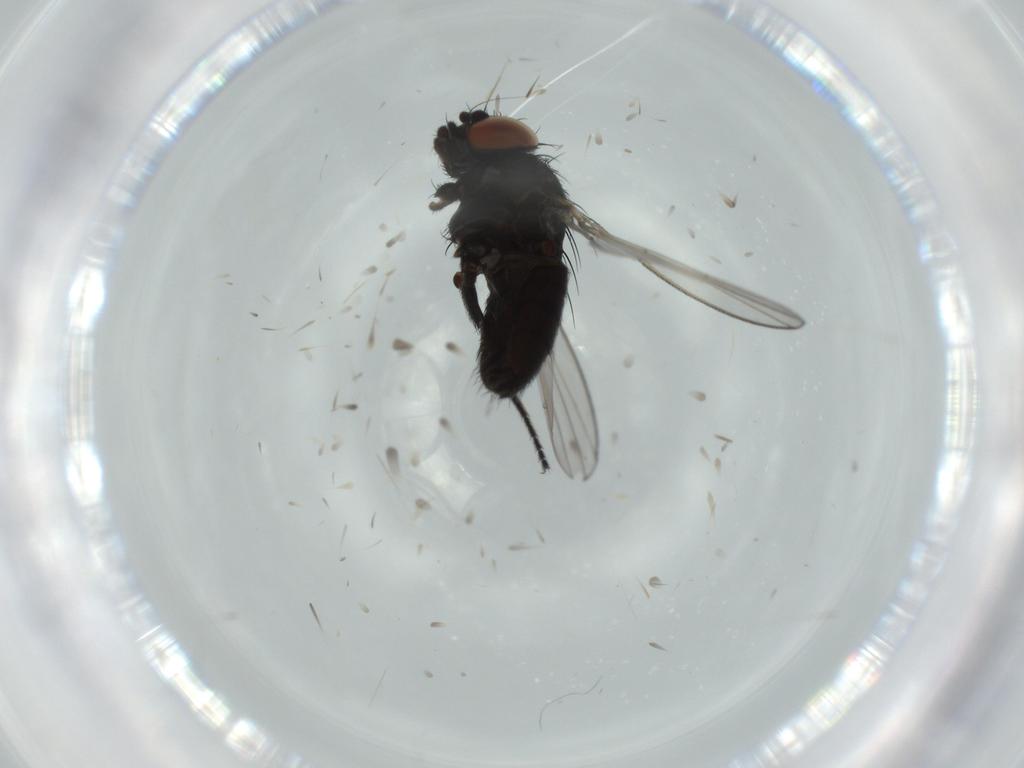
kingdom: Animalia
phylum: Arthropoda
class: Insecta
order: Diptera
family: Milichiidae
